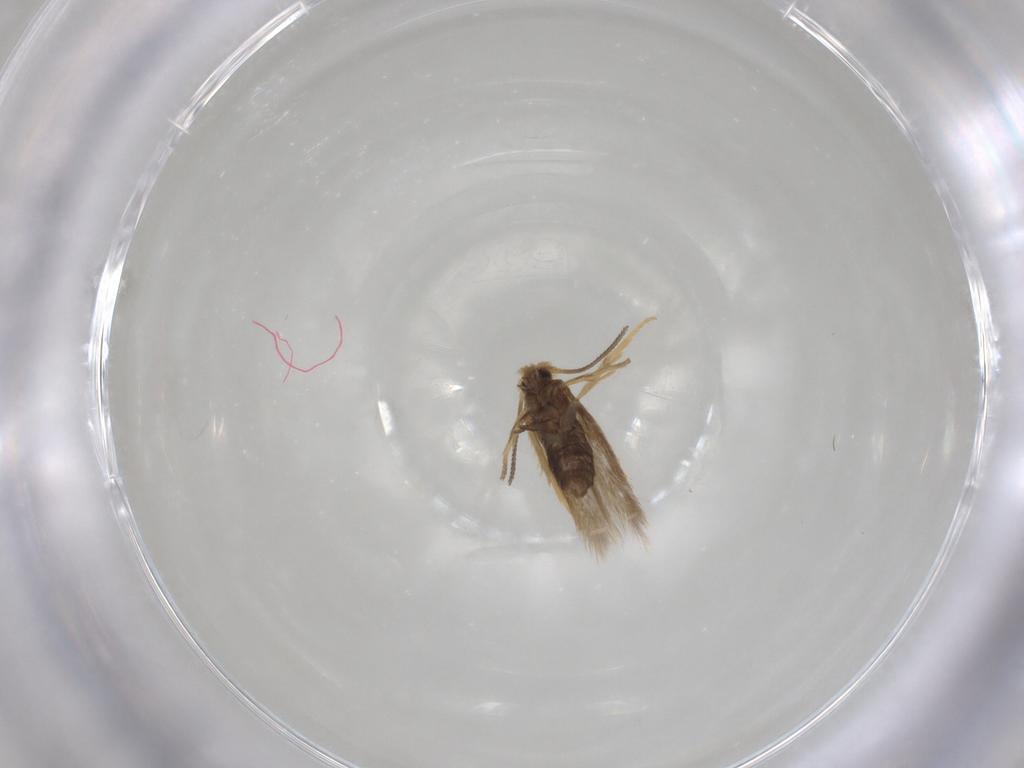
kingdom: Animalia
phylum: Arthropoda
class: Insecta
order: Lepidoptera
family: Nepticulidae
